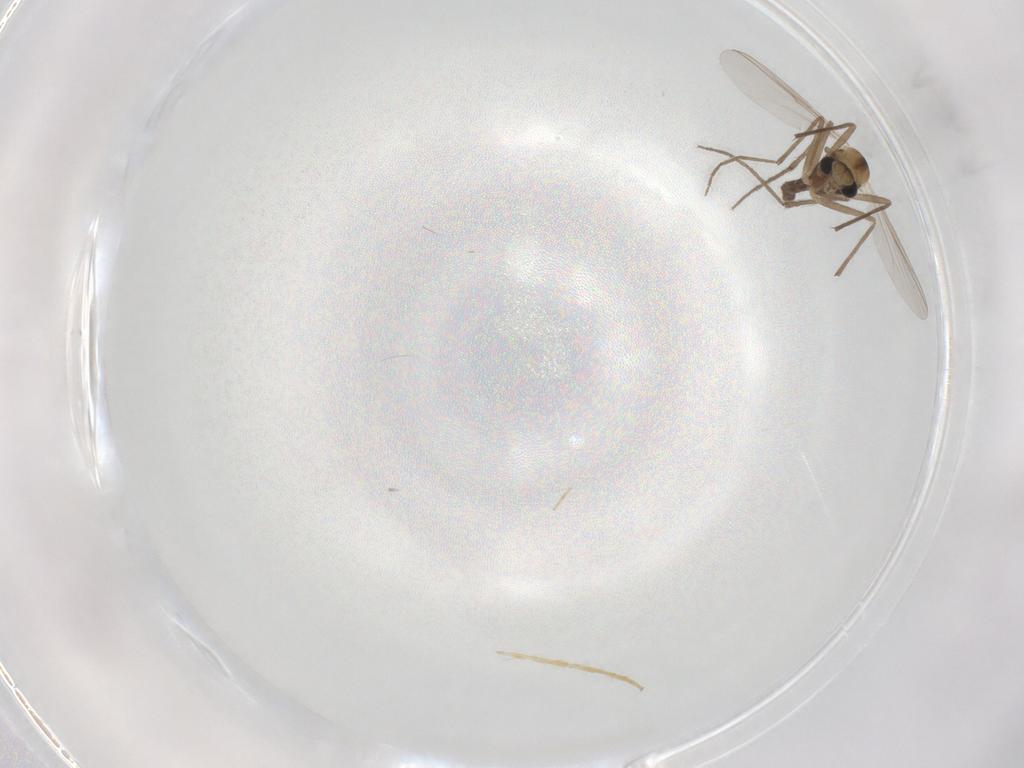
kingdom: Animalia
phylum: Arthropoda
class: Insecta
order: Diptera
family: Chironomidae
